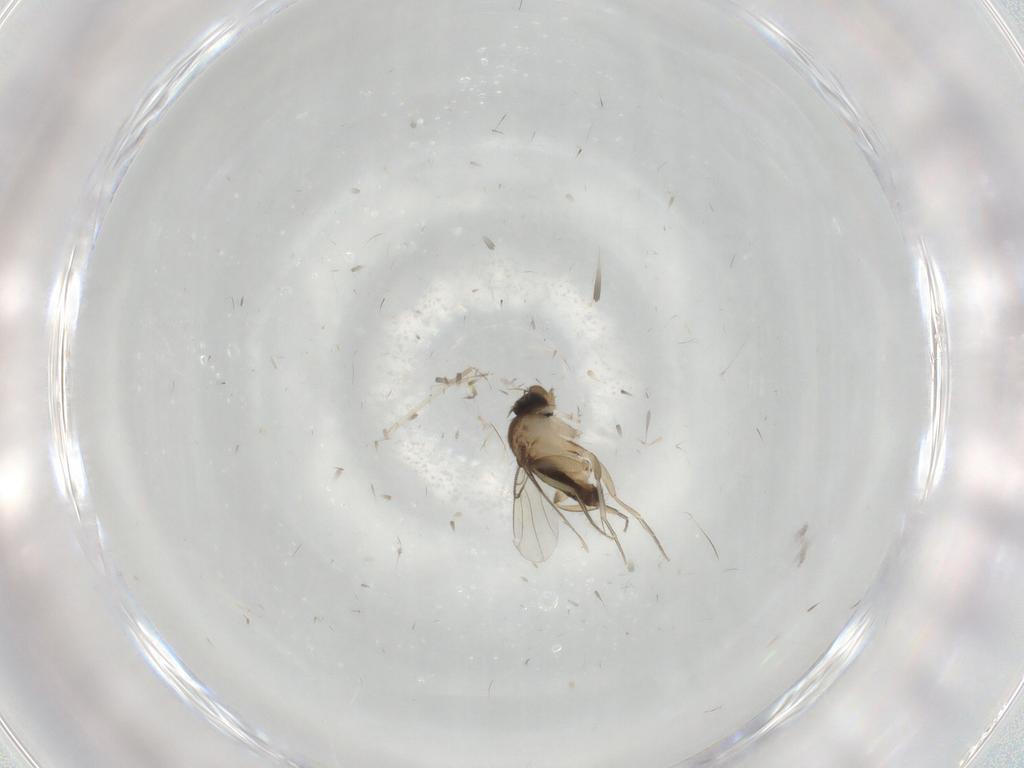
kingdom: Animalia
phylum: Arthropoda
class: Insecta
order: Diptera
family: Phoridae
